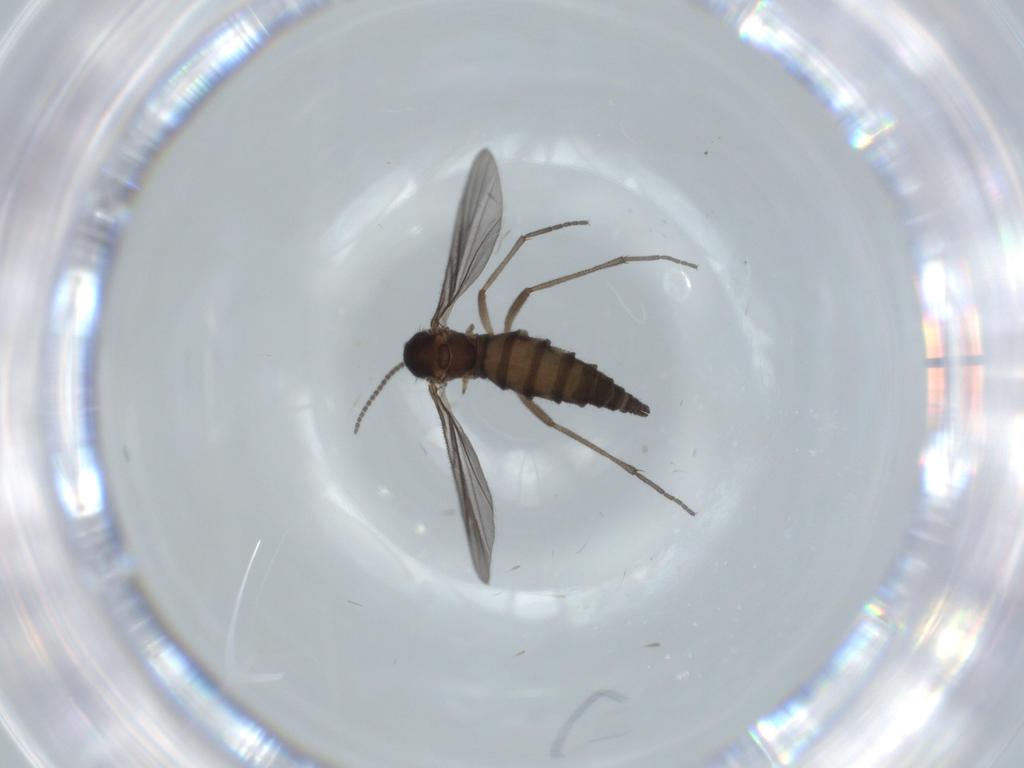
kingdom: Animalia
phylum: Arthropoda
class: Insecta
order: Diptera
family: Sciaridae
